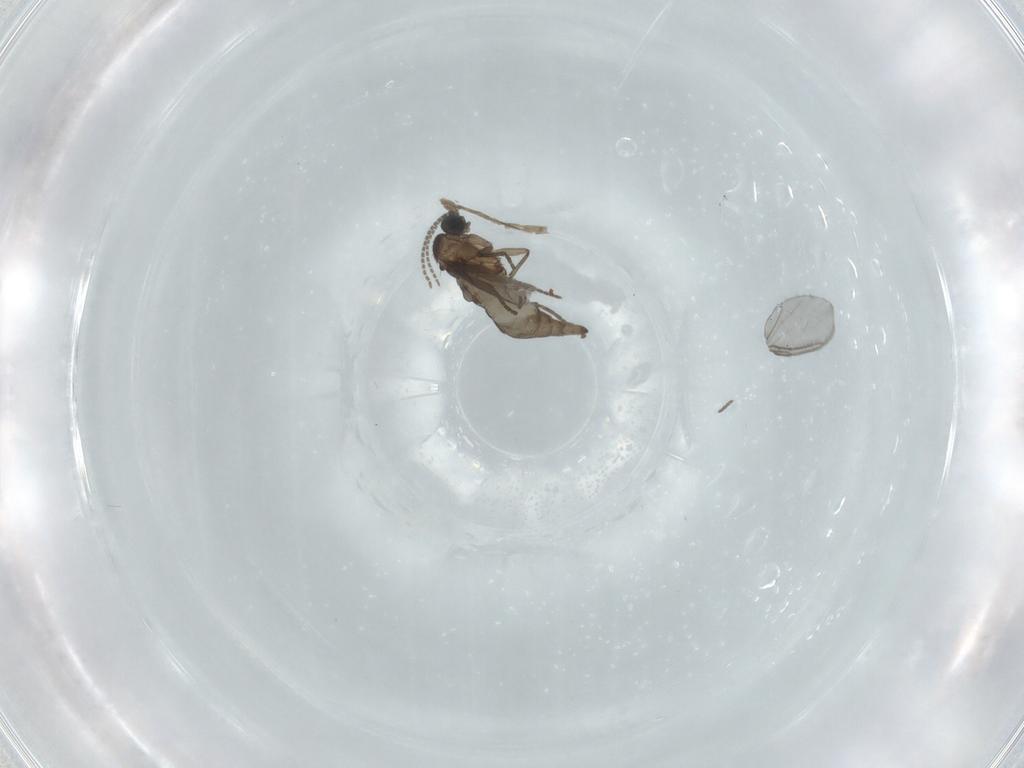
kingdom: Animalia
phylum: Arthropoda
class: Insecta
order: Diptera
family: Sciaridae
